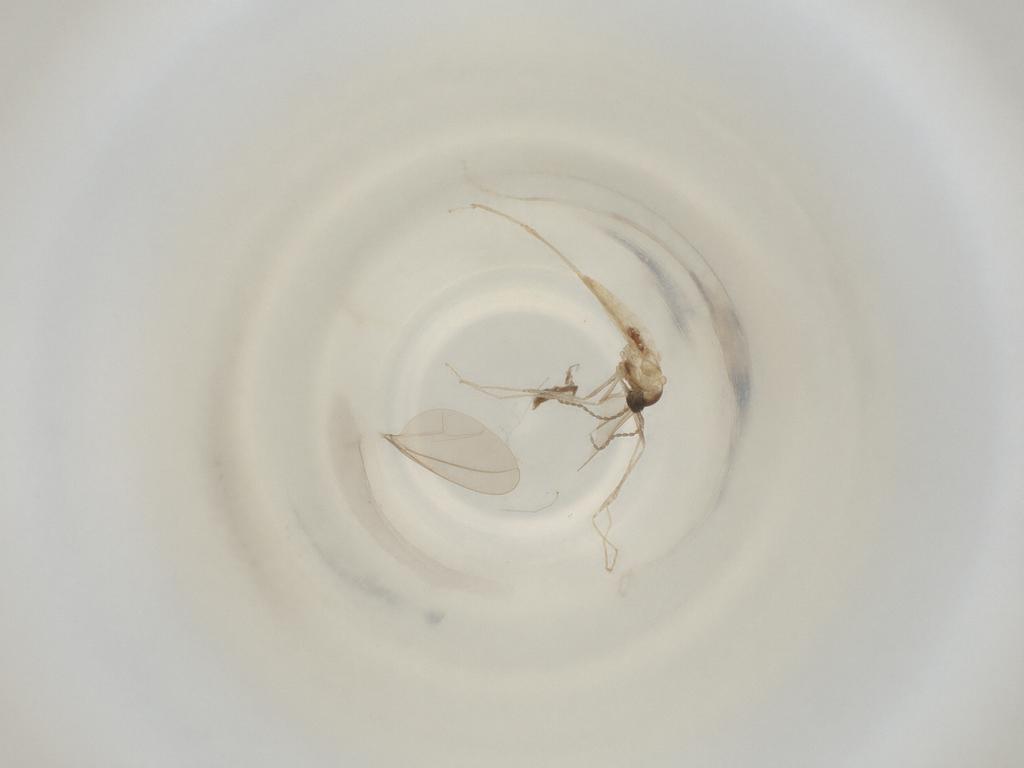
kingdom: Animalia
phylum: Arthropoda
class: Insecta
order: Diptera
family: Cecidomyiidae
